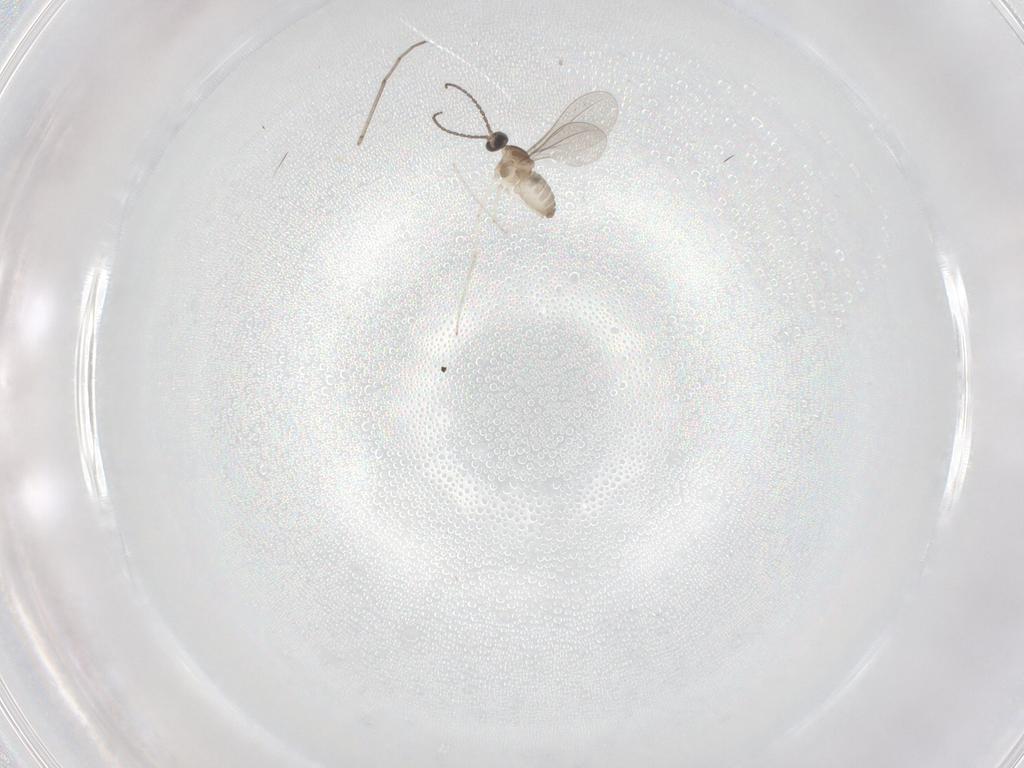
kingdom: Animalia
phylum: Arthropoda
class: Insecta
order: Diptera
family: Cecidomyiidae
